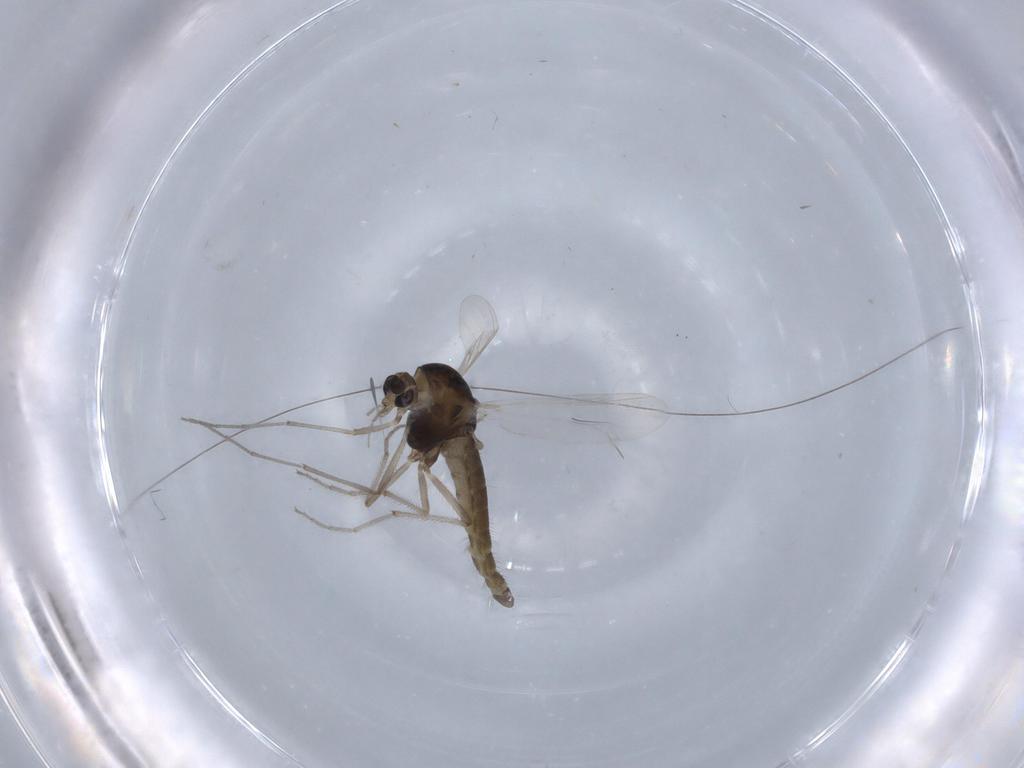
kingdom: Animalia
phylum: Arthropoda
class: Insecta
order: Diptera
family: Chironomidae
